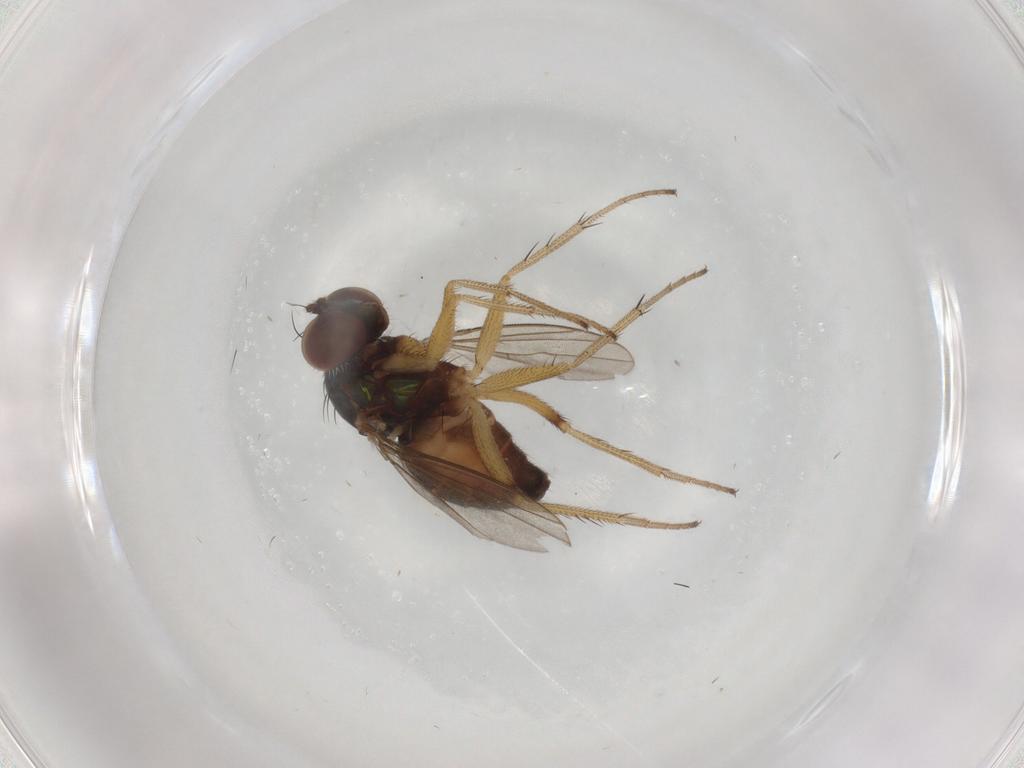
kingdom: Animalia
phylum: Arthropoda
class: Insecta
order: Diptera
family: Dolichopodidae
